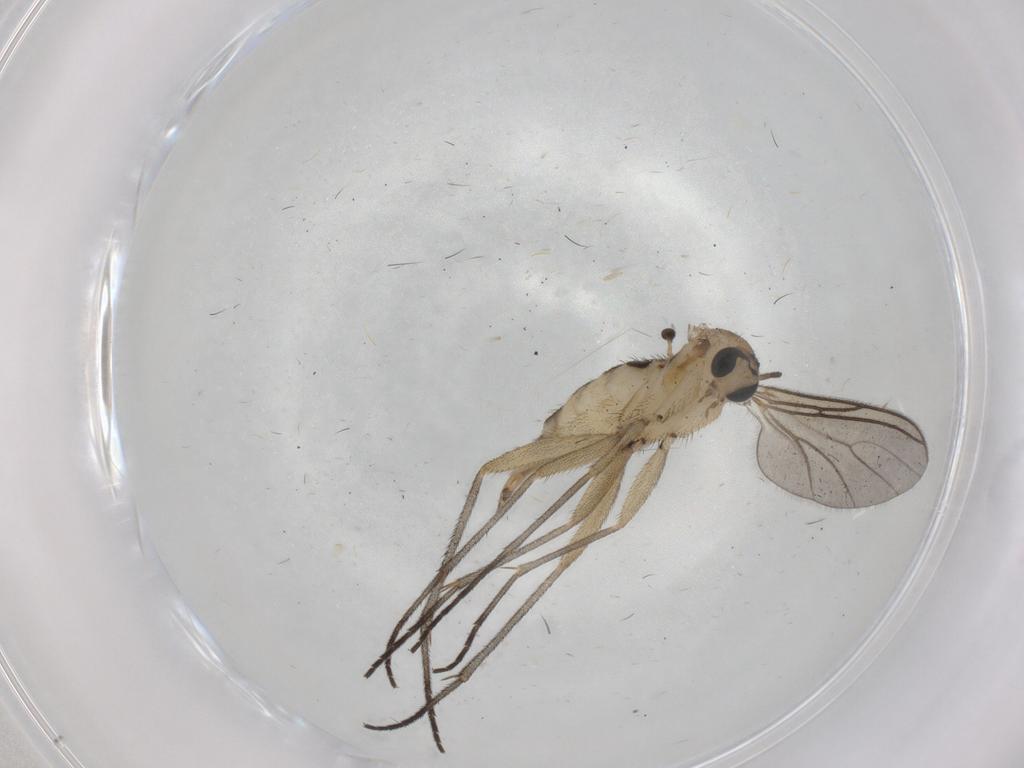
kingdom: Animalia
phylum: Arthropoda
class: Insecta
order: Diptera
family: Sciaridae
